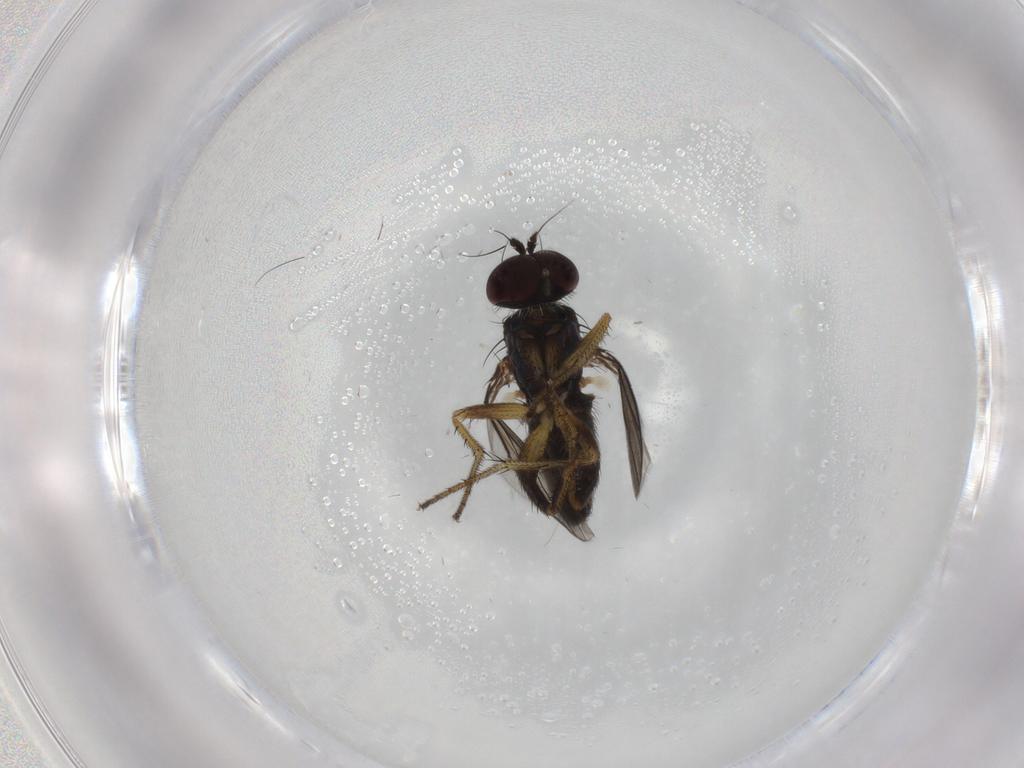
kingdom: Animalia
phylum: Arthropoda
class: Insecta
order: Diptera
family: Dolichopodidae
